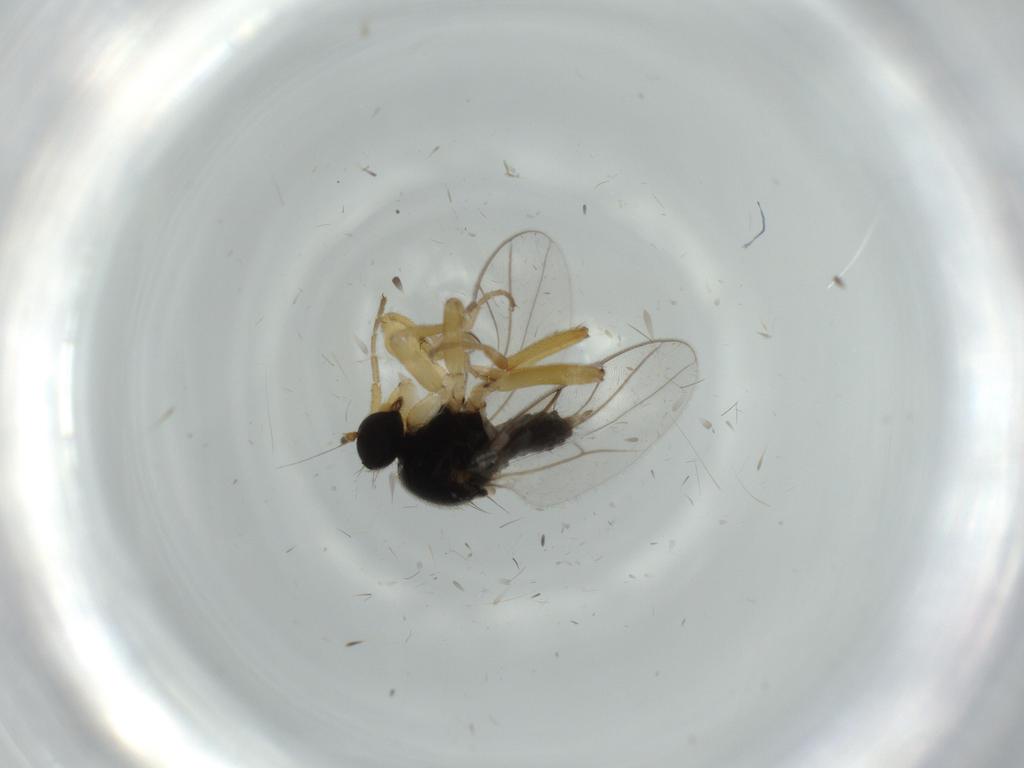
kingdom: Animalia
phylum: Arthropoda
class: Insecta
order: Diptera
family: Hybotidae
